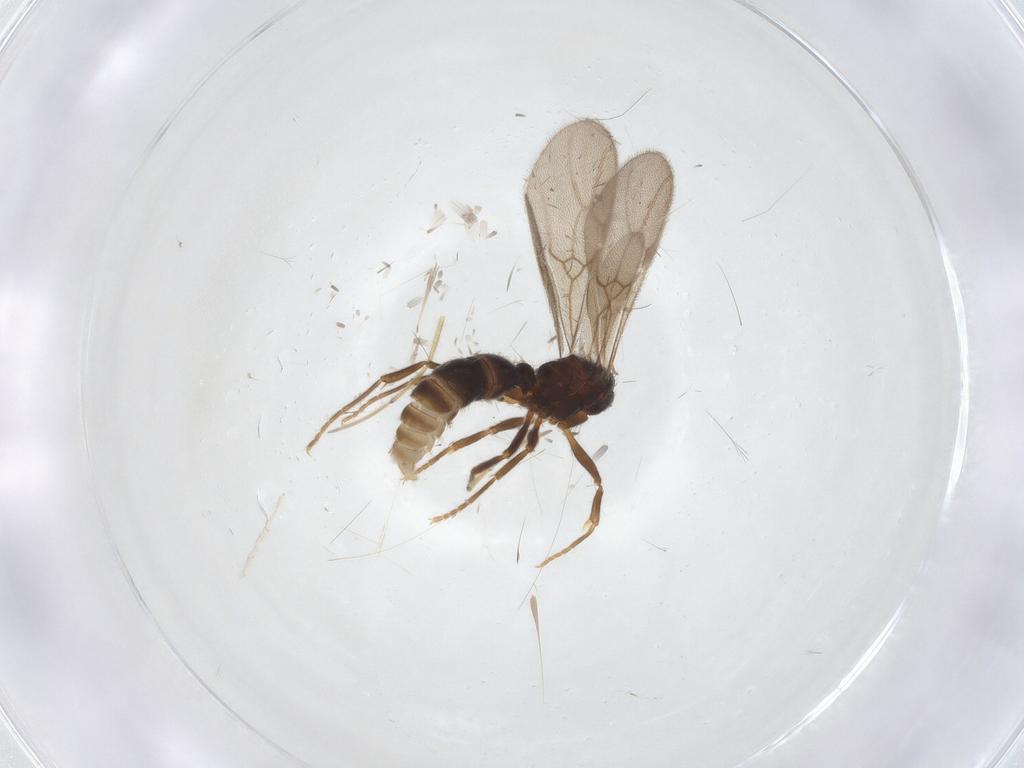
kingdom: Animalia
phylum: Arthropoda
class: Insecta
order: Hymenoptera
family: Formicidae
